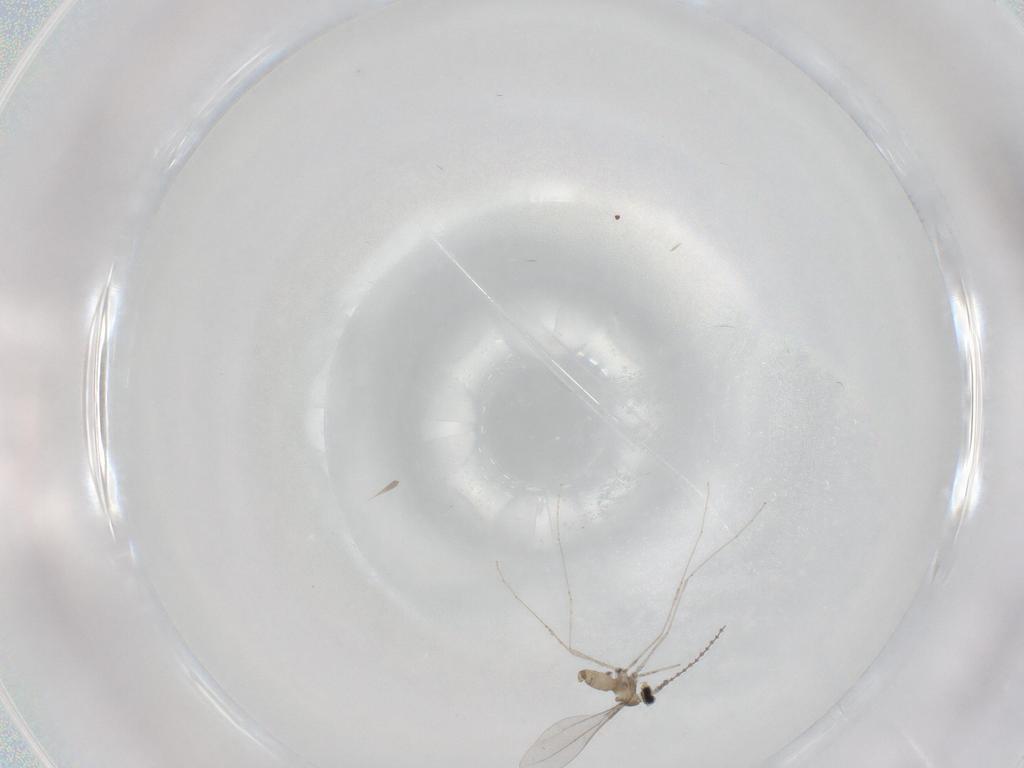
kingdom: Animalia
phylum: Arthropoda
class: Insecta
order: Diptera
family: Cecidomyiidae
